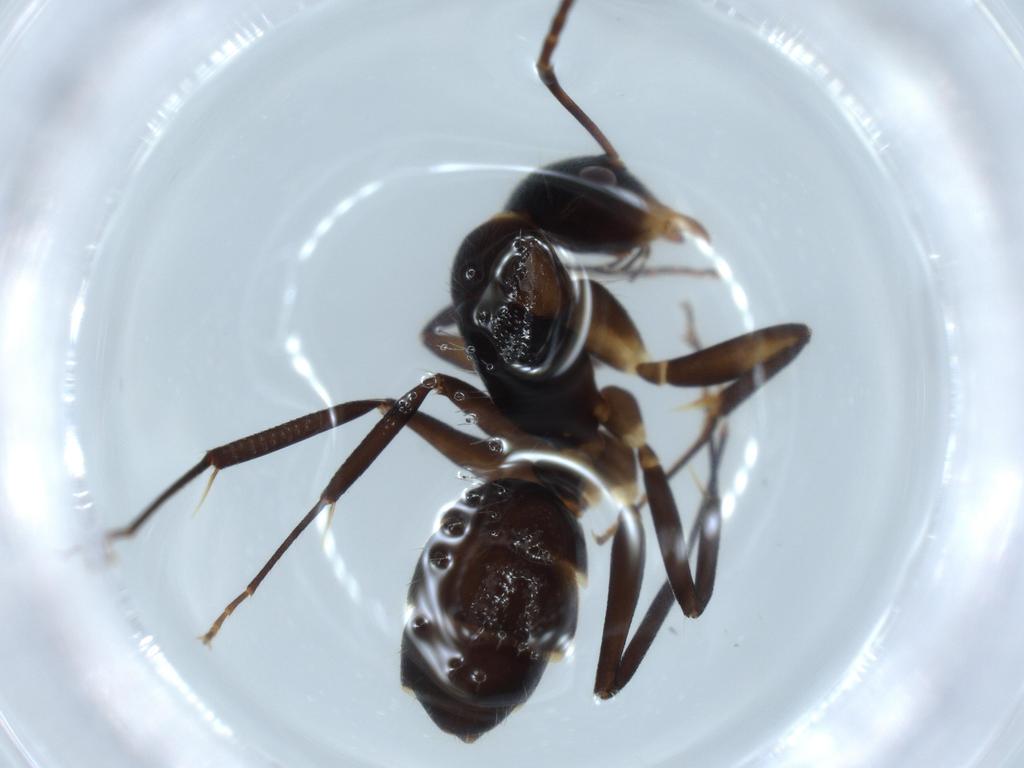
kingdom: Animalia
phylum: Arthropoda
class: Insecta
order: Hymenoptera
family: Formicidae
